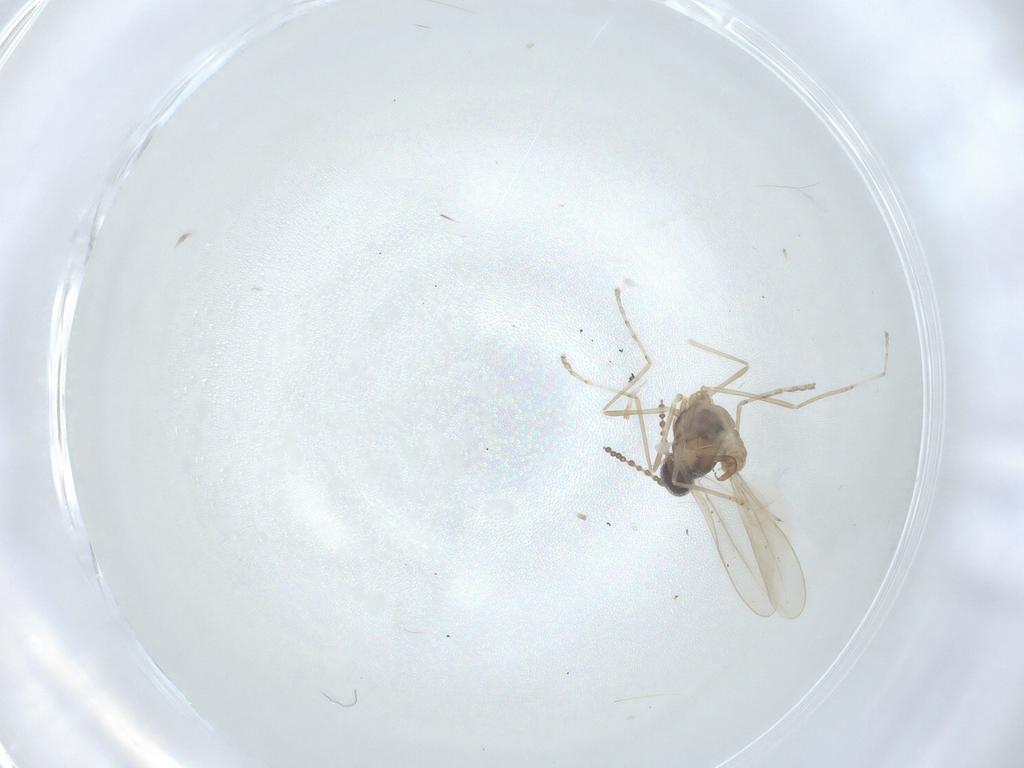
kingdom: Animalia
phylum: Arthropoda
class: Insecta
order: Diptera
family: Cecidomyiidae
